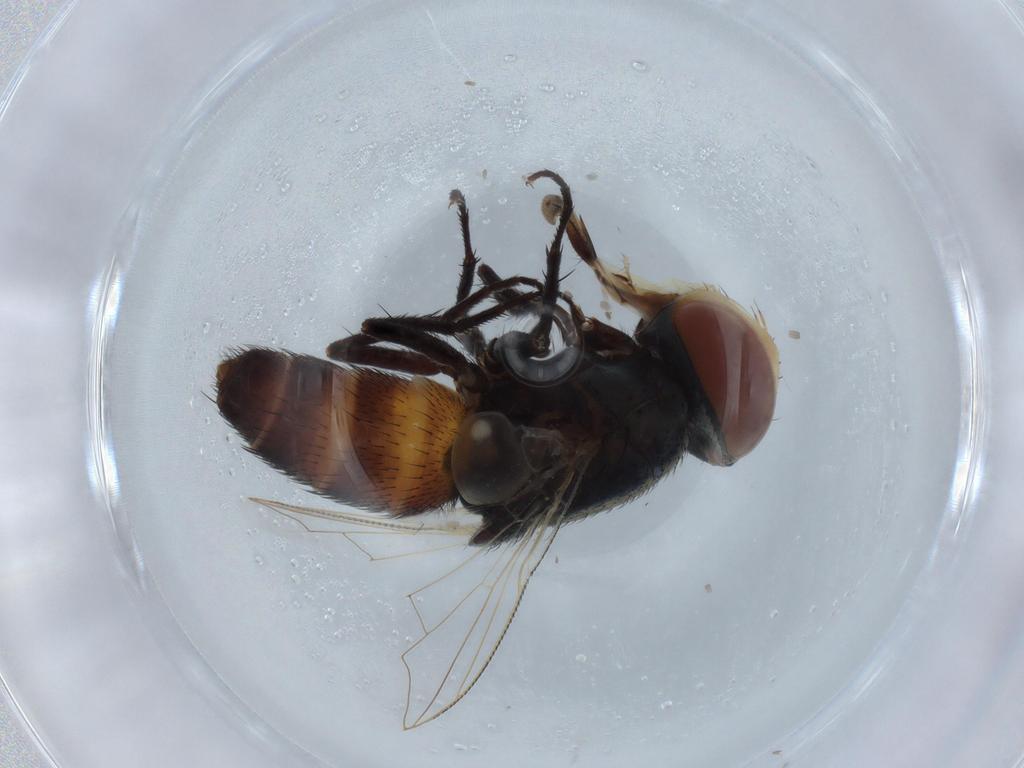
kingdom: Animalia
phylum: Arthropoda
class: Insecta
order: Diptera
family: Sarcophagidae
